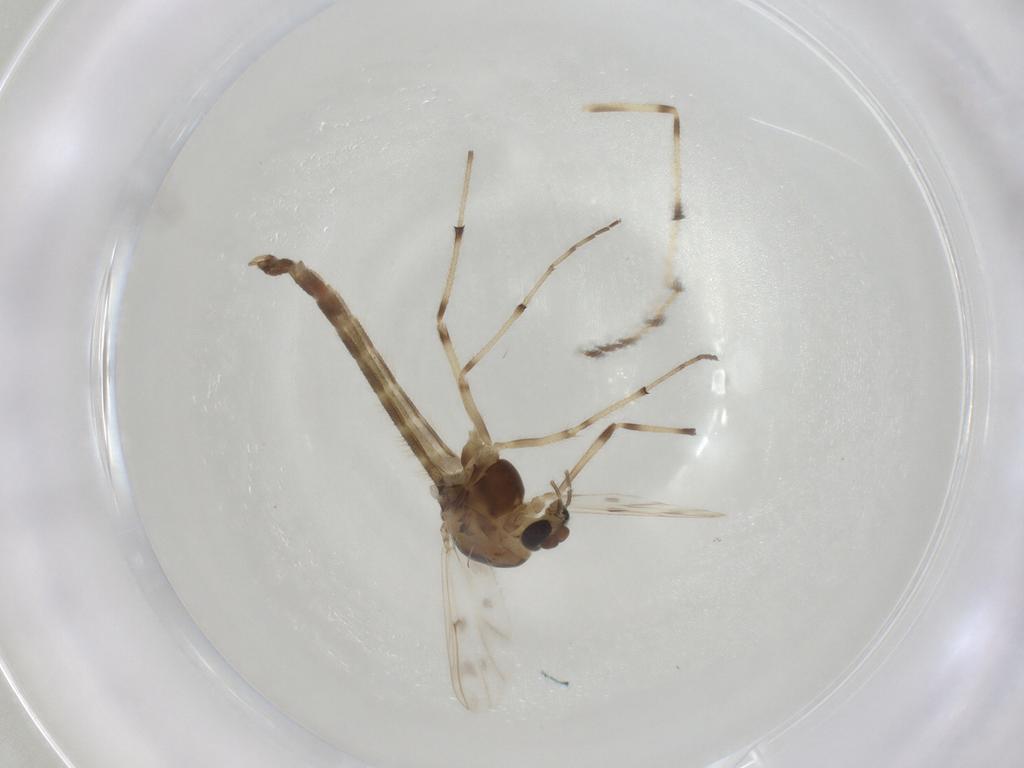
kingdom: Animalia
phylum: Arthropoda
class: Insecta
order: Diptera
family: Chironomidae
